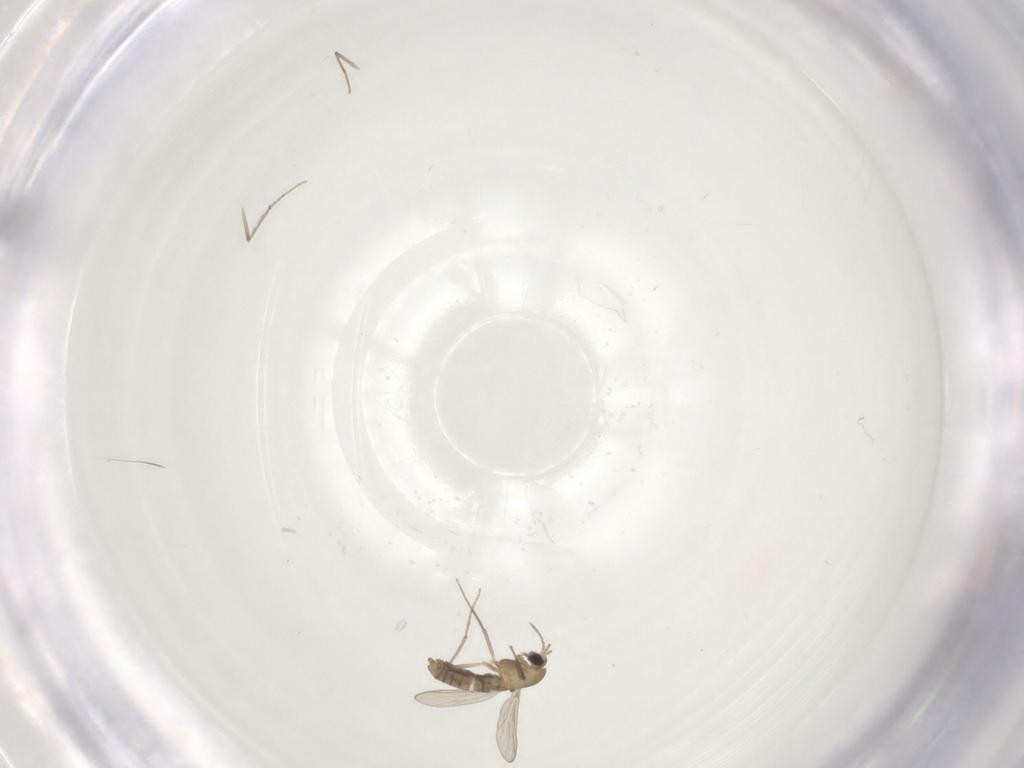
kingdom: Animalia
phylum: Arthropoda
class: Insecta
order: Diptera
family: Chironomidae
